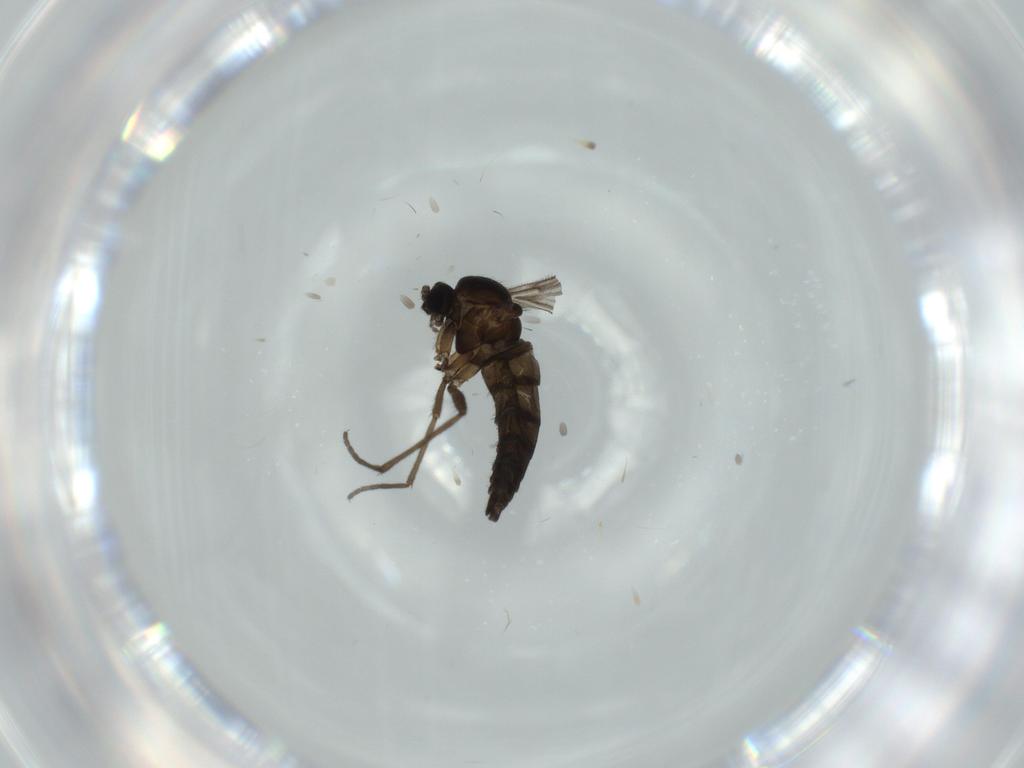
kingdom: Animalia
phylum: Arthropoda
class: Insecta
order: Diptera
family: Sciaridae
